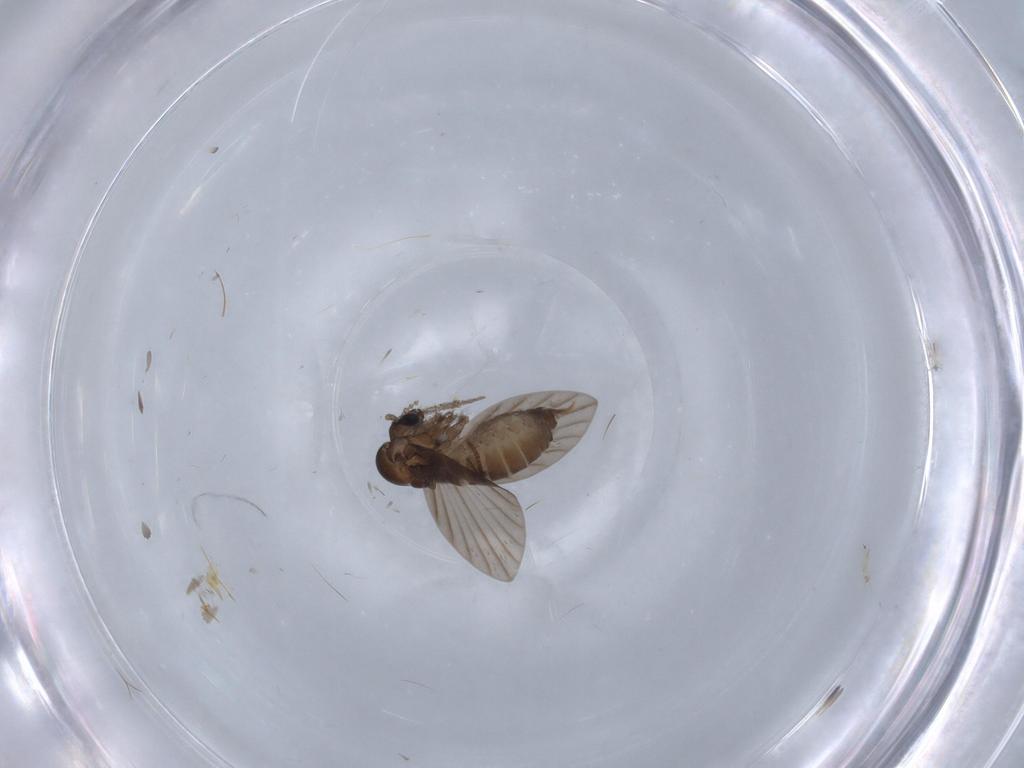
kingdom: Animalia
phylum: Arthropoda
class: Insecta
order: Diptera
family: Psychodidae
